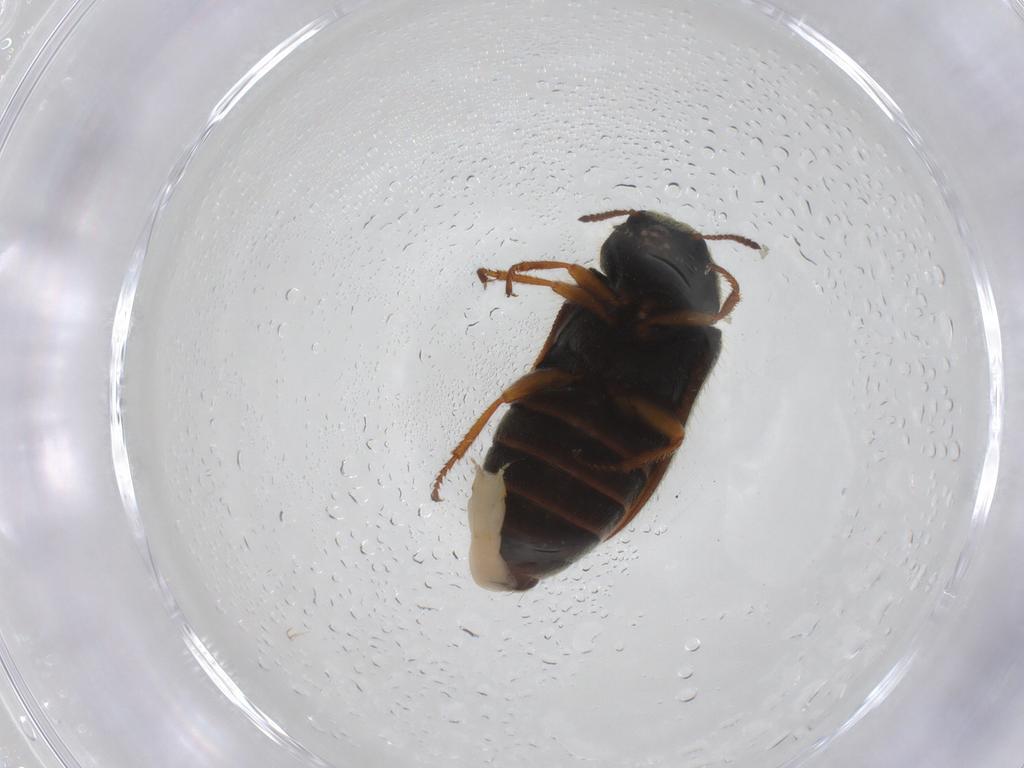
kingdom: Animalia
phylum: Arthropoda
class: Insecta
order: Coleoptera
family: Melyridae
